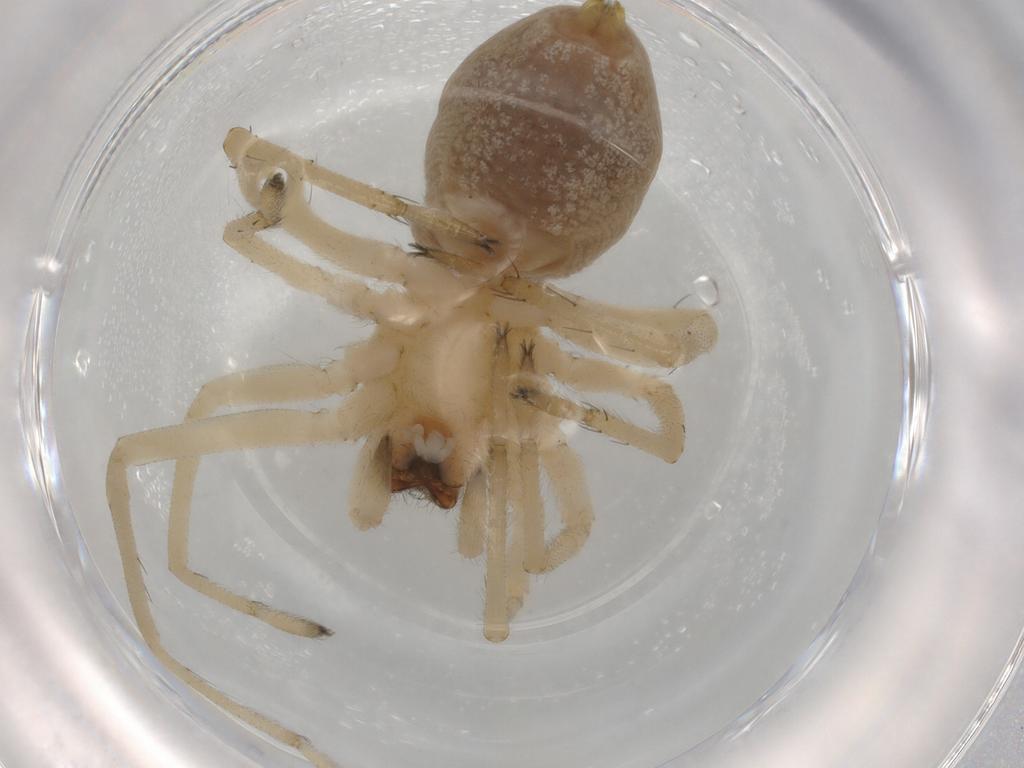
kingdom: Animalia
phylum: Arthropoda
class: Arachnida
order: Araneae
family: Cheiracanthiidae
